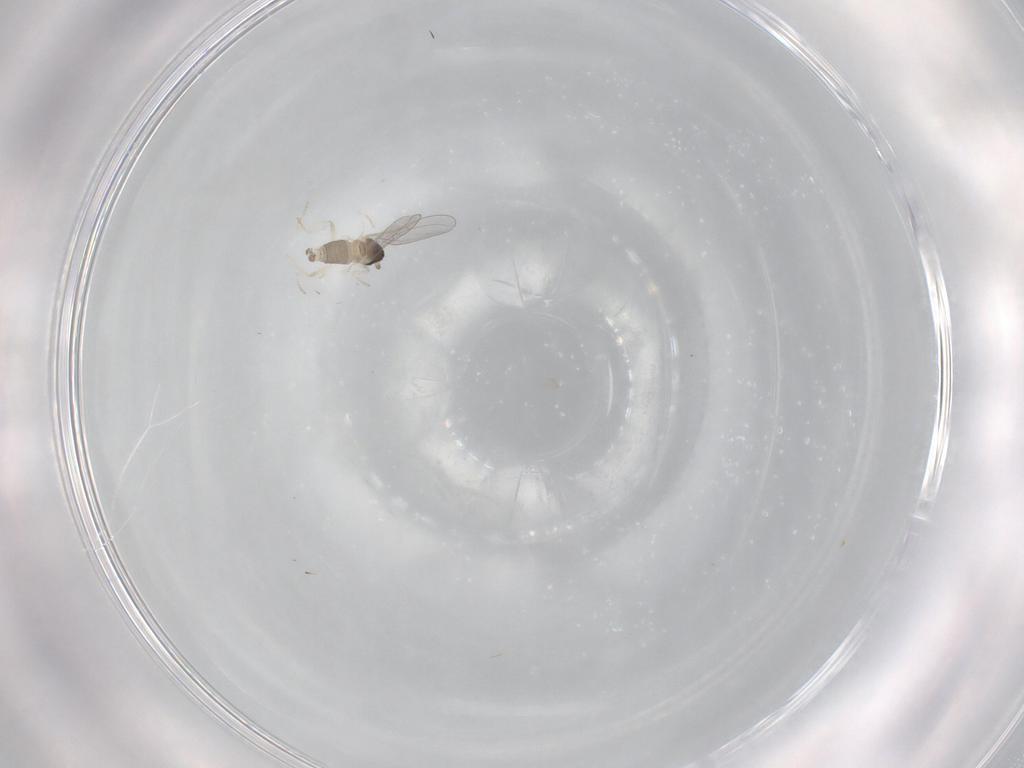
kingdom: Animalia
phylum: Arthropoda
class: Insecta
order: Diptera
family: Cecidomyiidae
